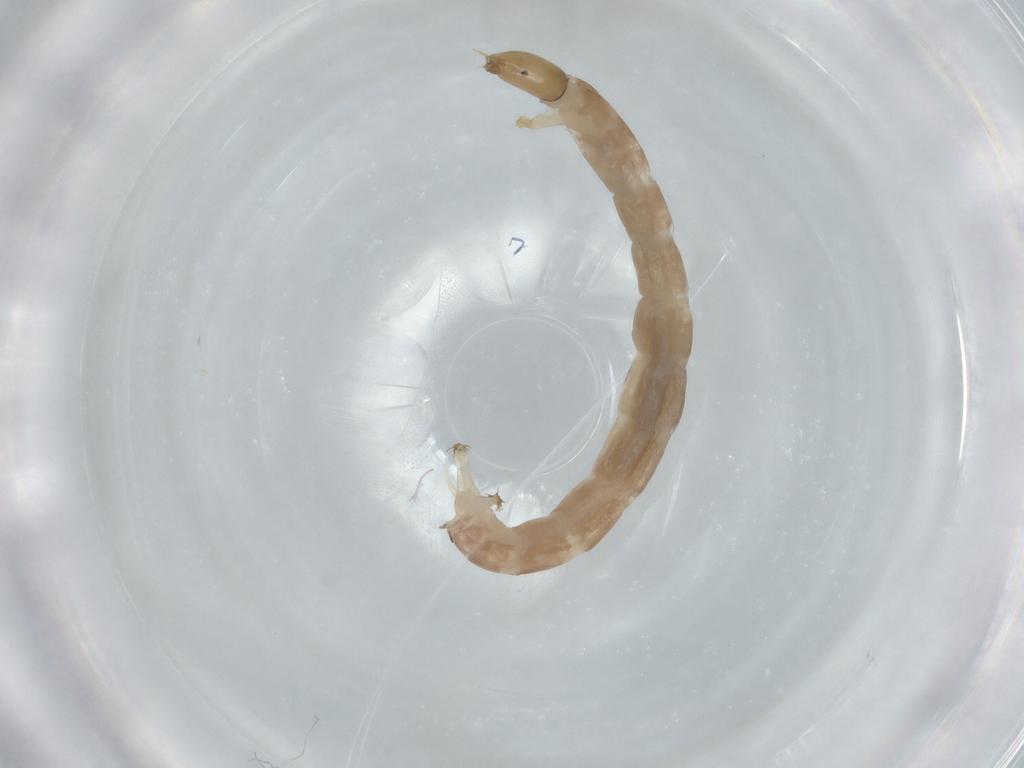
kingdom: Animalia
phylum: Arthropoda
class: Insecta
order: Diptera
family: Chironomidae
